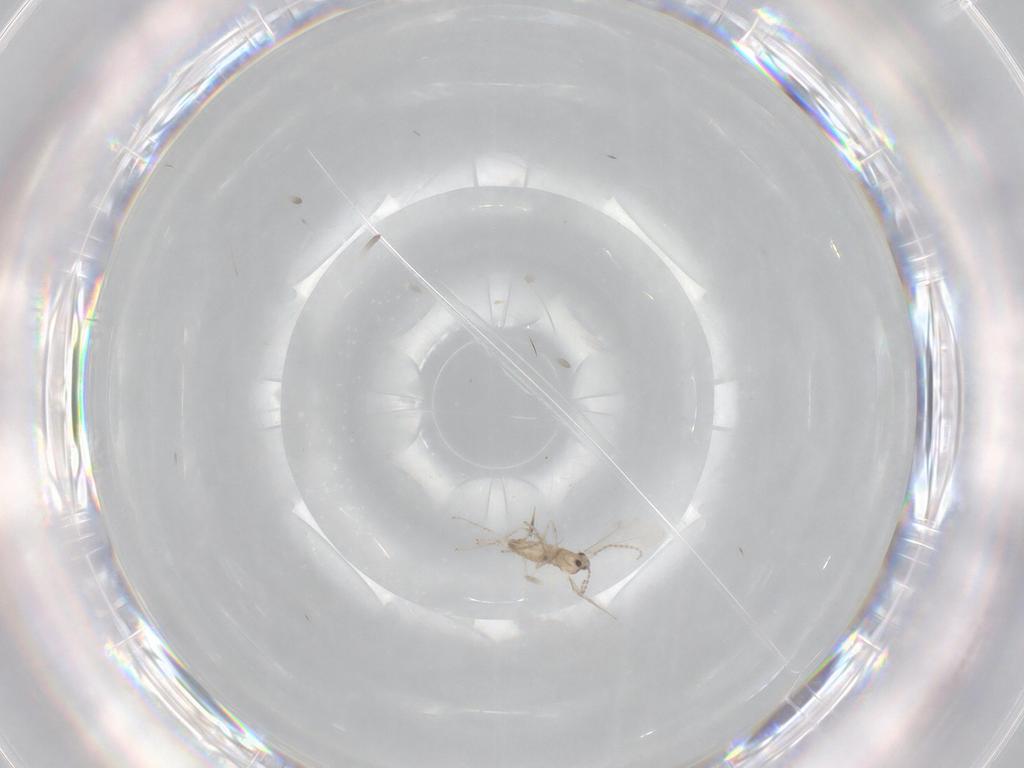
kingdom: Animalia
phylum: Arthropoda
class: Insecta
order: Diptera
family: Cecidomyiidae
